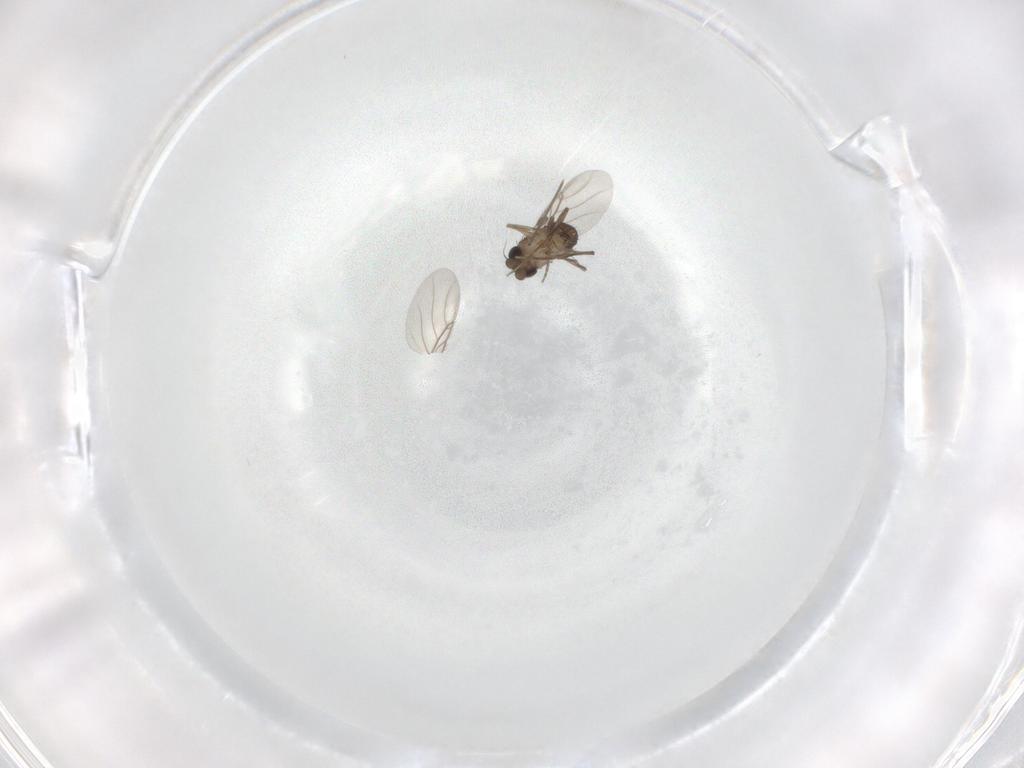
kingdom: Animalia
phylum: Arthropoda
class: Insecta
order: Diptera
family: Phoridae
